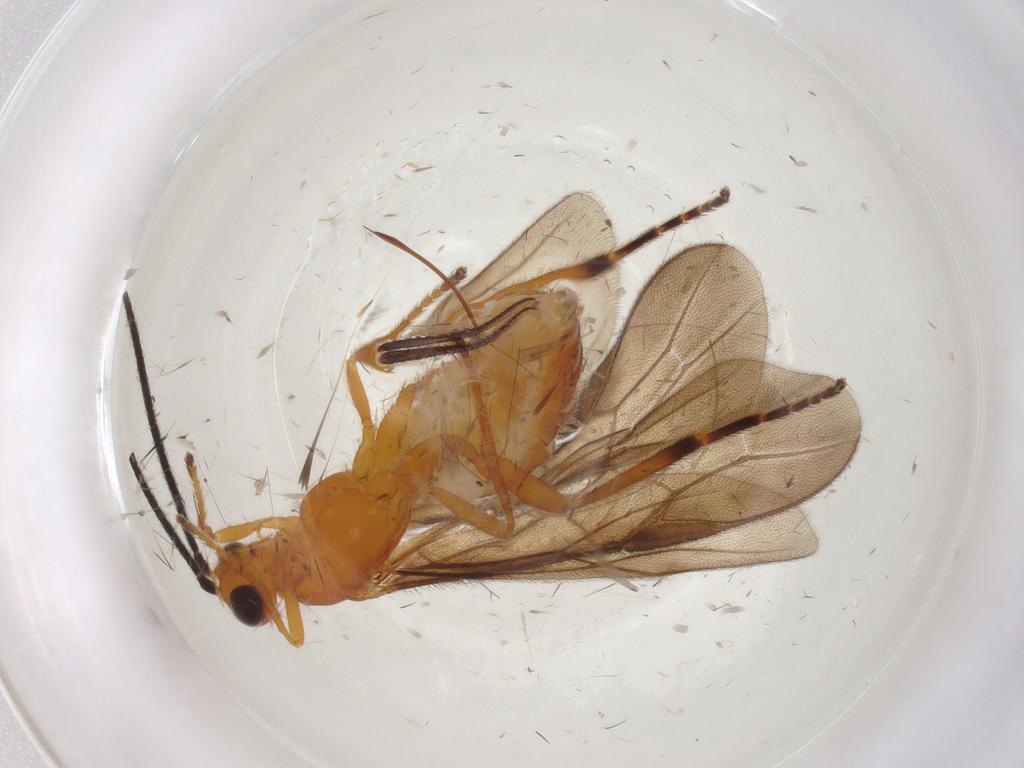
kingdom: Animalia
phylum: Arthropoda
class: Insecta
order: Hymenoptera
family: Braconidae
